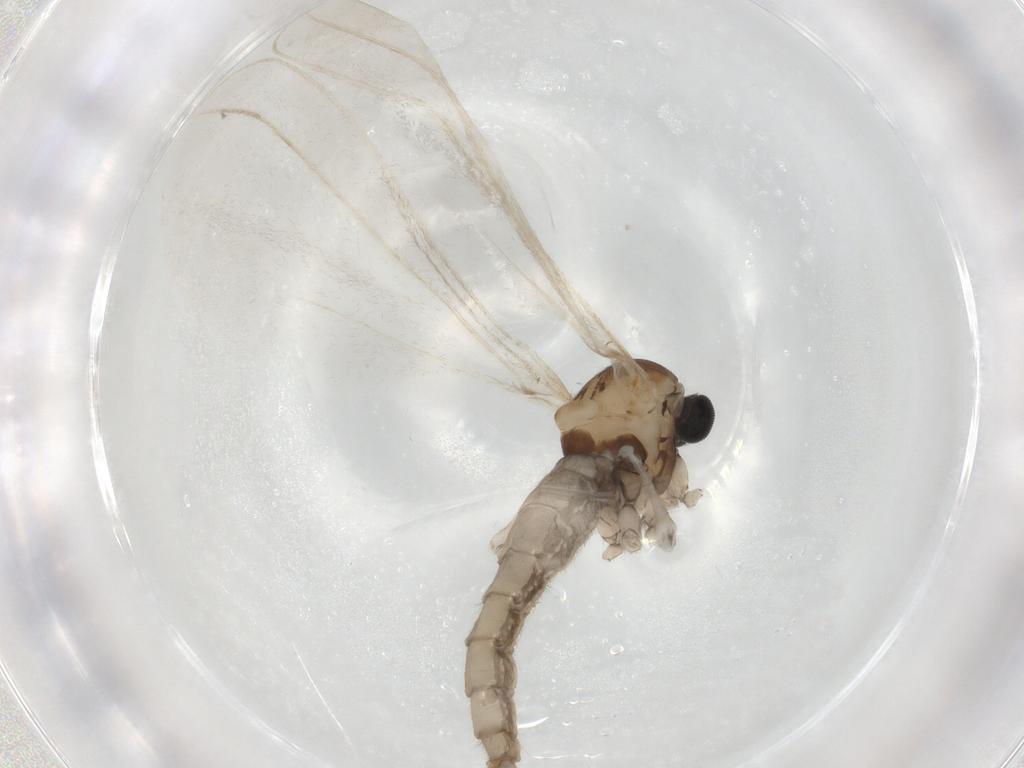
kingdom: Animalia
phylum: Arthropoda
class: Insecta
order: Diptera
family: Cecidomyiidae
